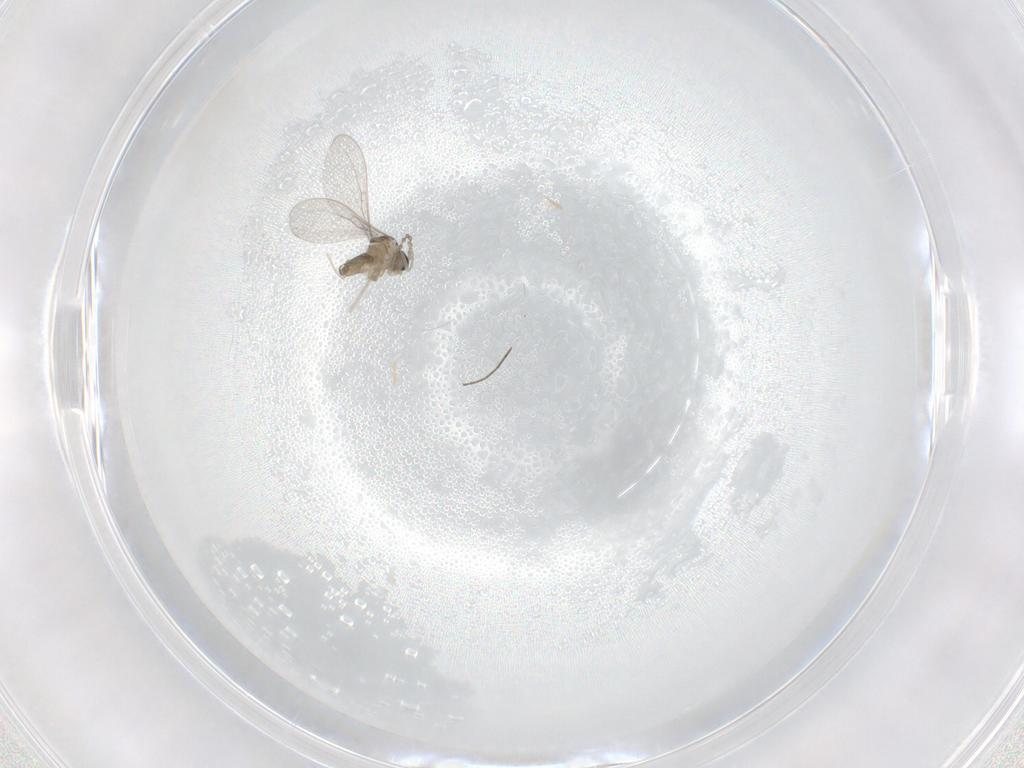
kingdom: Animalia
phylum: Arthropoda
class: Insecta
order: Diptera
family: Cecidomyiidae
